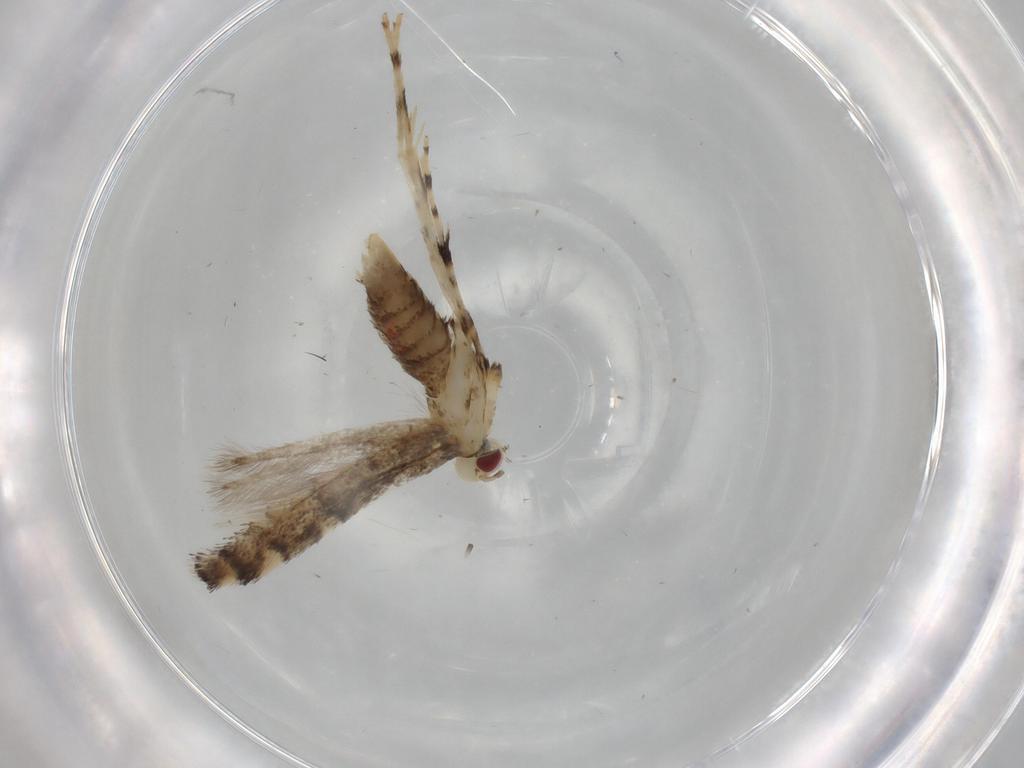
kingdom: Animalia
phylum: Arthropoda
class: Insecta
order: Lepidoptera
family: Gracillariidae
